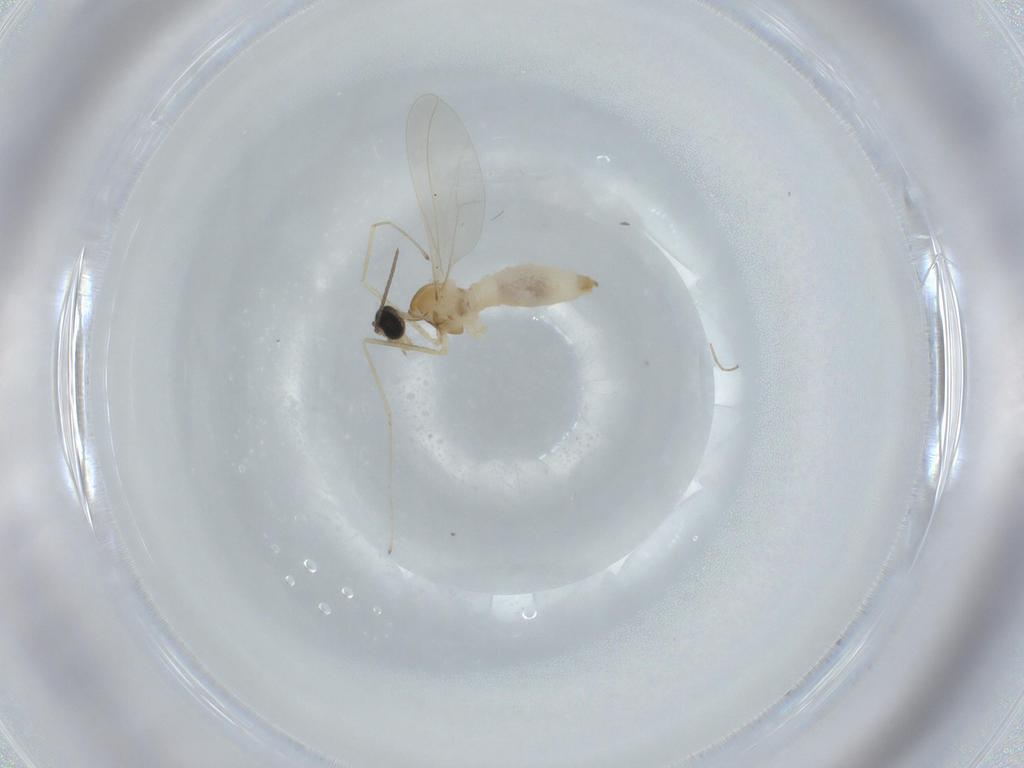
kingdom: Animalia
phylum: Arthropoda
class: Insecta
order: Diptera
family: Cecidomyiidae
